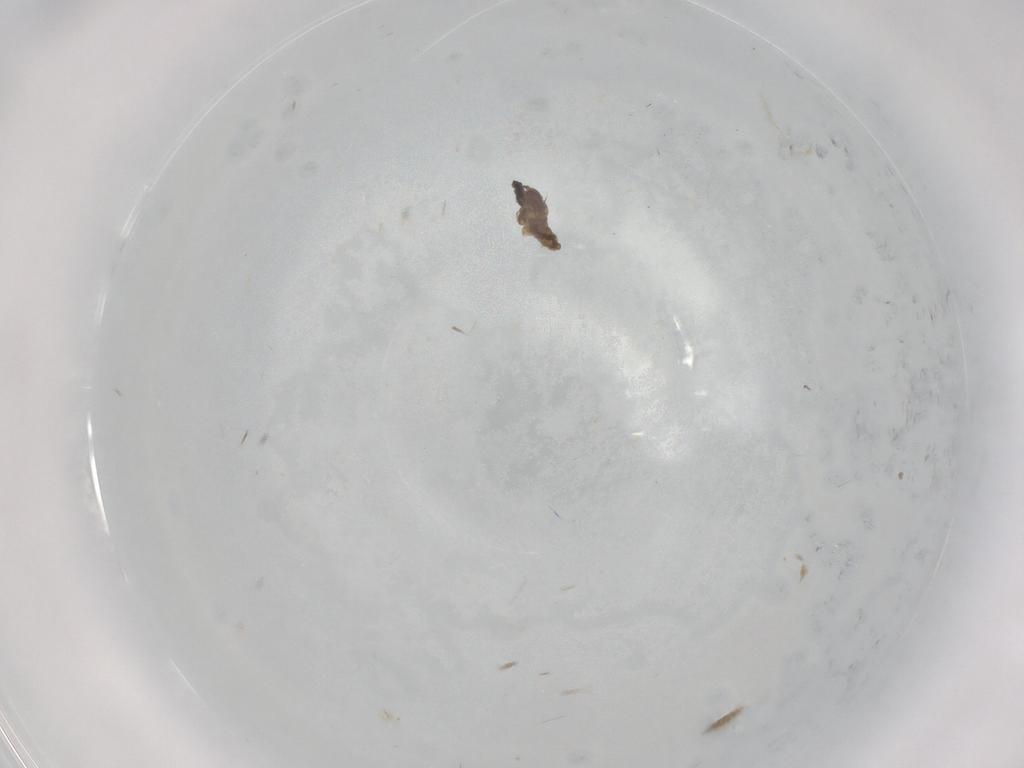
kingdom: Animalia
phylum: Arthropoda
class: Insecta
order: Diptera
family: Cecidomyiidae
